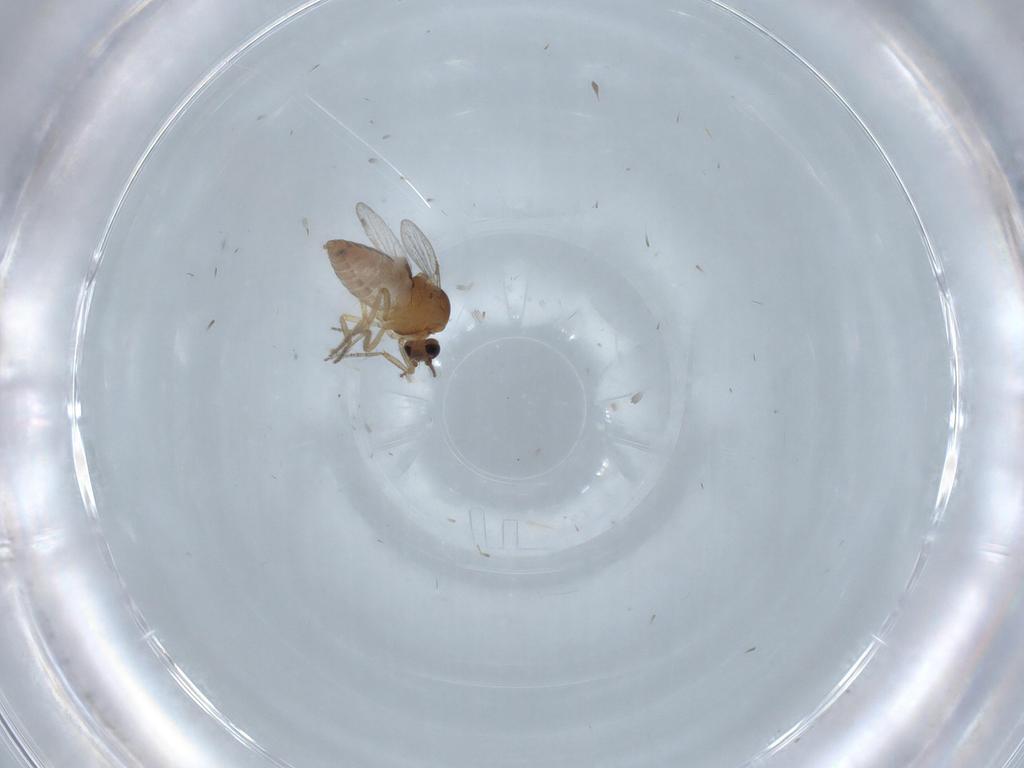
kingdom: Animalia
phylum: Arthropoda
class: Insecta
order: Diptera
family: Ceratopogonidae
